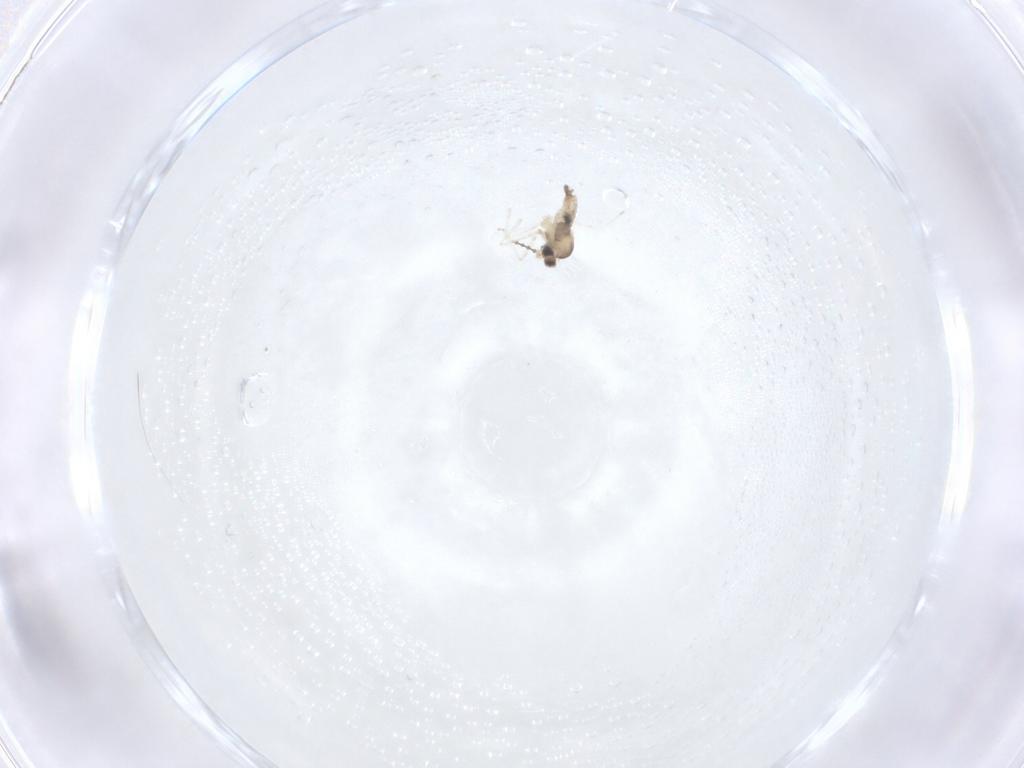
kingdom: Animalia
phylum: Arthropoda
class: Insecta
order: Diptera
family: Cecidomyiidae
